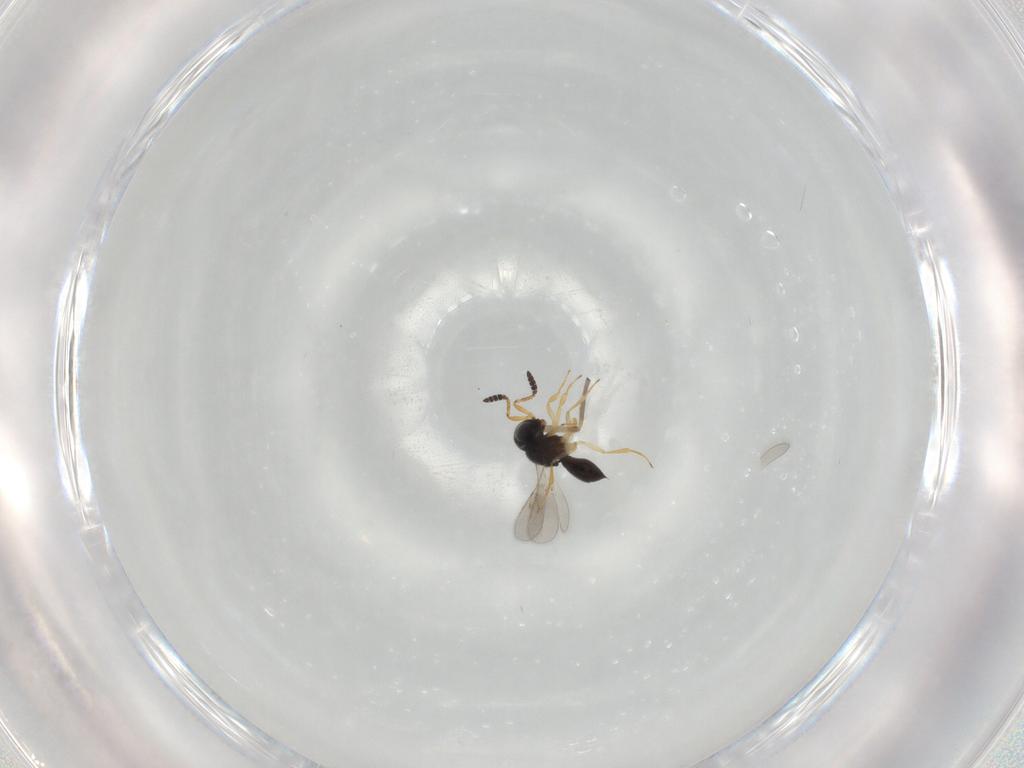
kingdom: Animalia
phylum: Arthropoda
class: Insecta
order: Hymenoptera
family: Scelionidae
